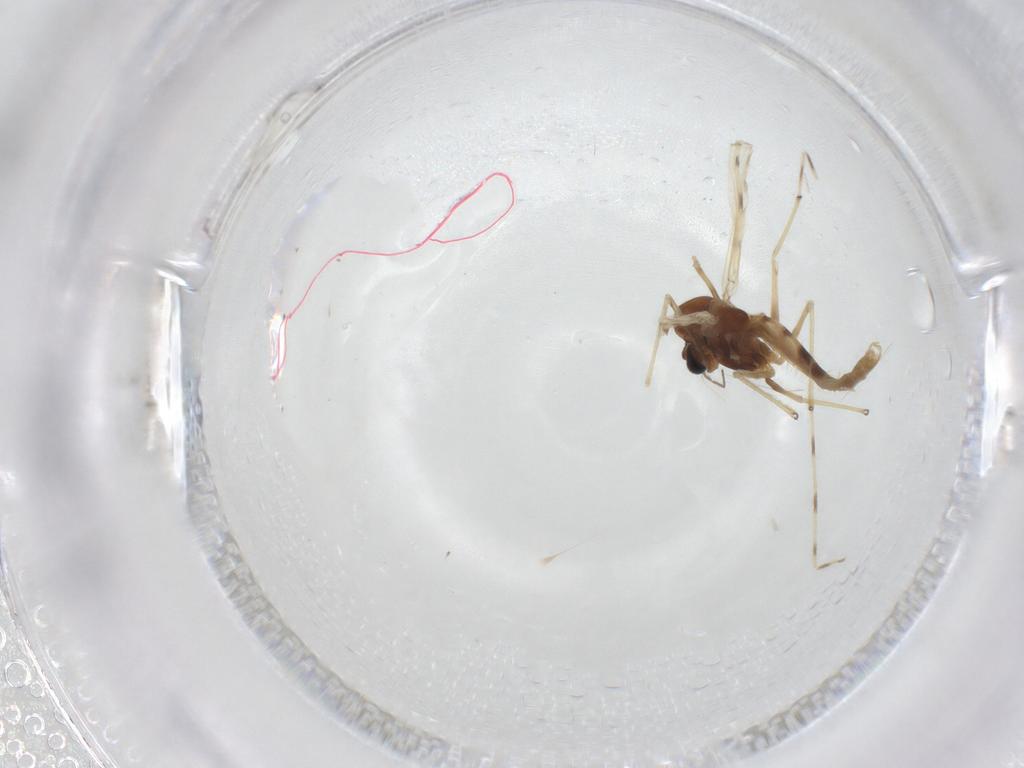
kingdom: Animalia
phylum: Arthropoda
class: Insecta
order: Diptera
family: Chironomidae
